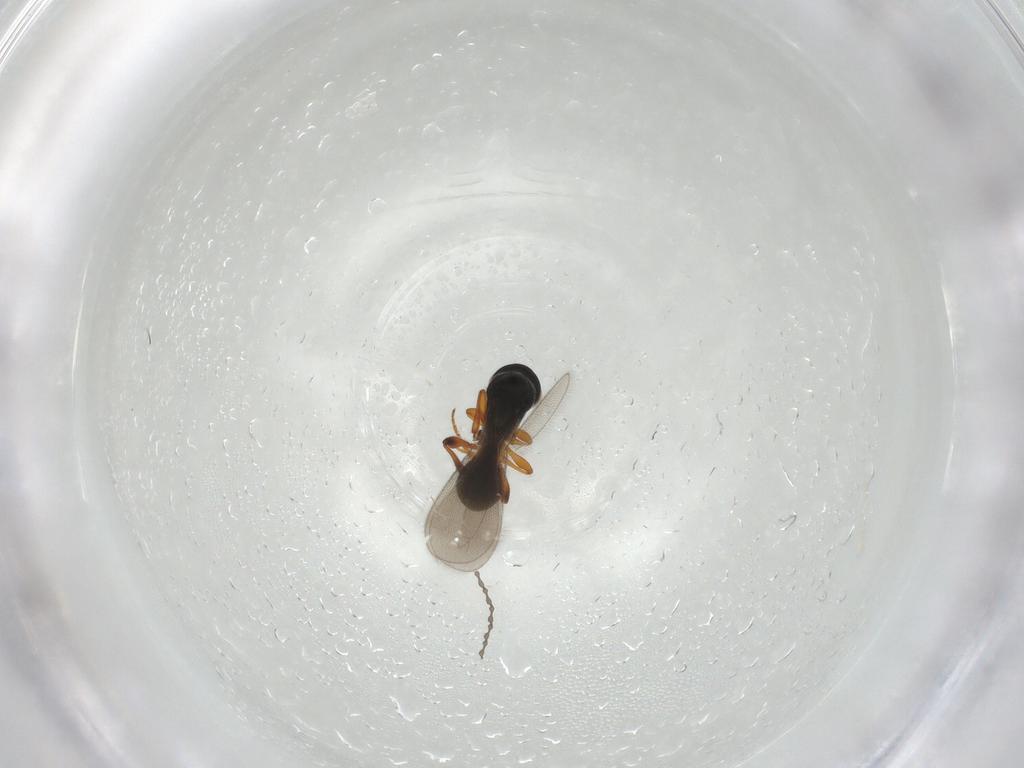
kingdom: Animalia
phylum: Arthropoda
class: Insecta
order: Hymenoptera
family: Platygastridae
